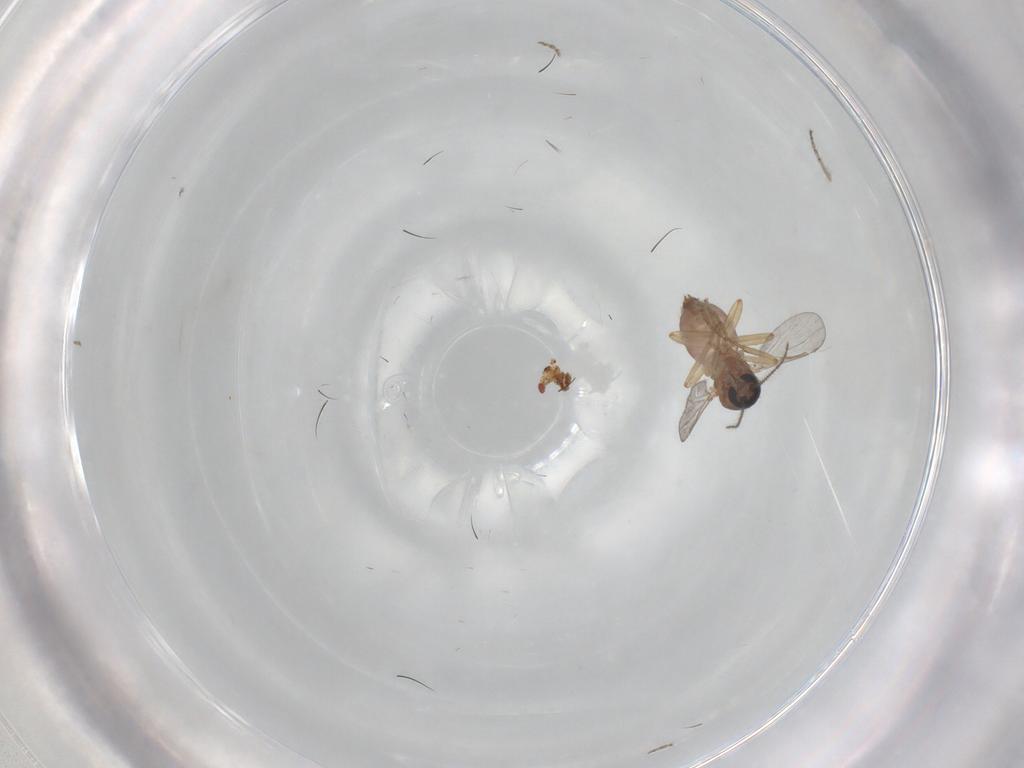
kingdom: Animalia
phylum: Arthropoda
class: Insecta
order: Diptera
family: Ceratopogonidae
